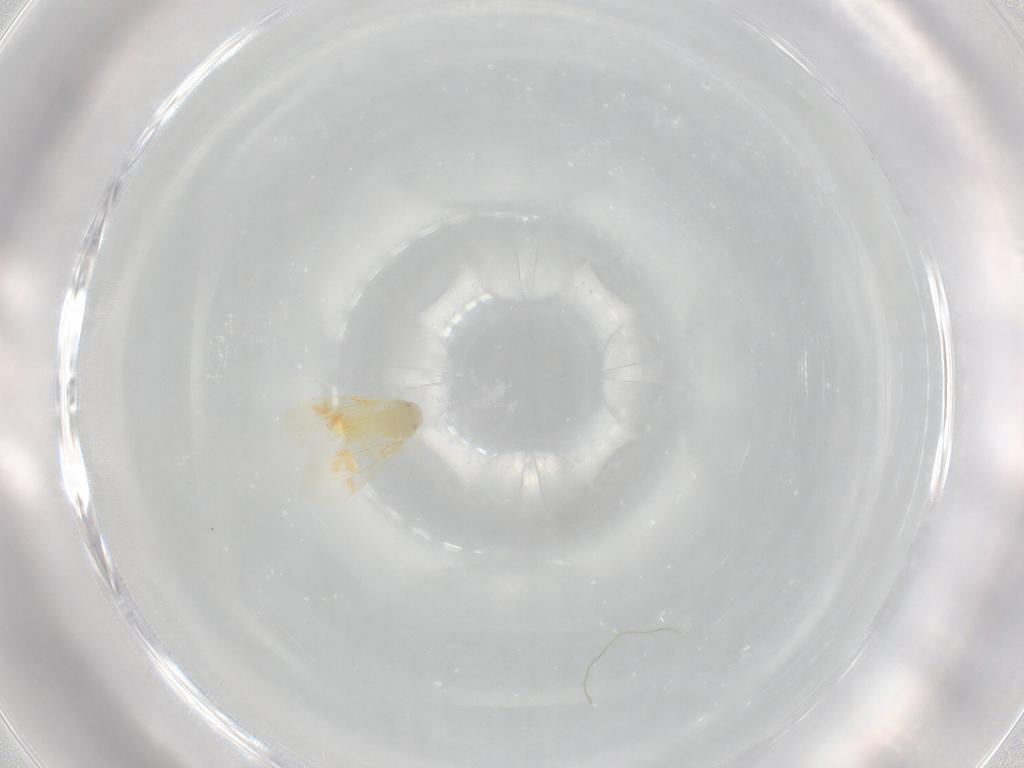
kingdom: Animalia
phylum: Arthropoda
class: Insecta
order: Hemiptera
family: Aleyrodidae
